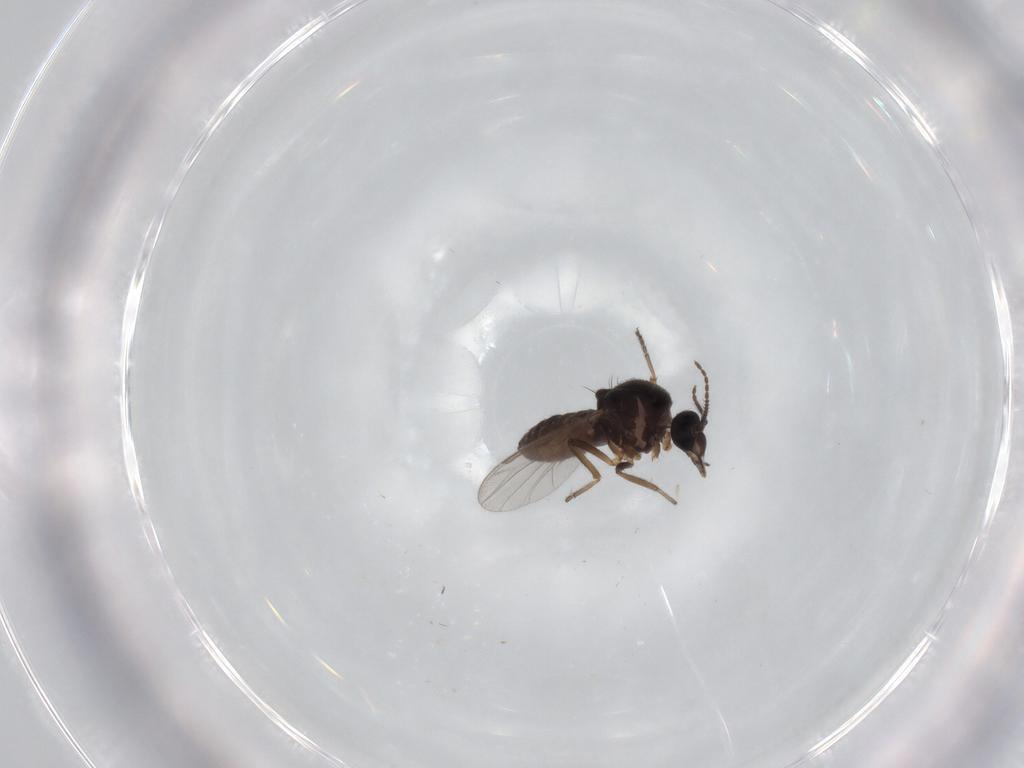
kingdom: Animalia
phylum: Arthropoda
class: Insecta
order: Diptera
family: Ceratopogonidae
